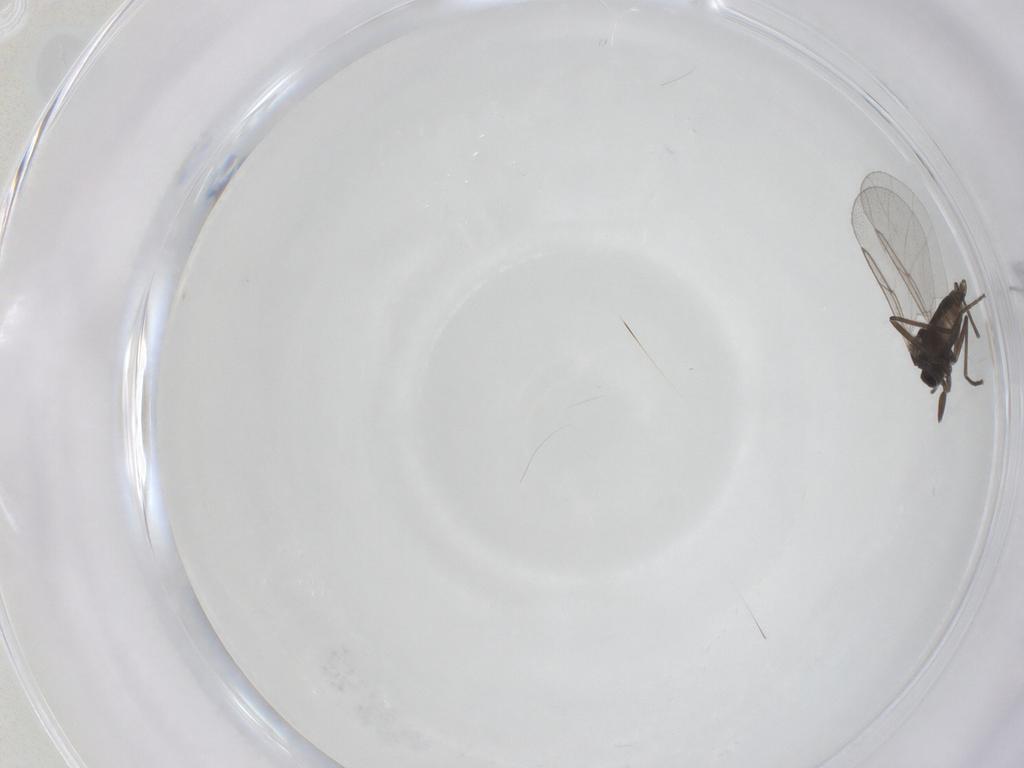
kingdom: Animalia
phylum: Arthropoda
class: Insecta
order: Diptera
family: Cecidomyiidae
